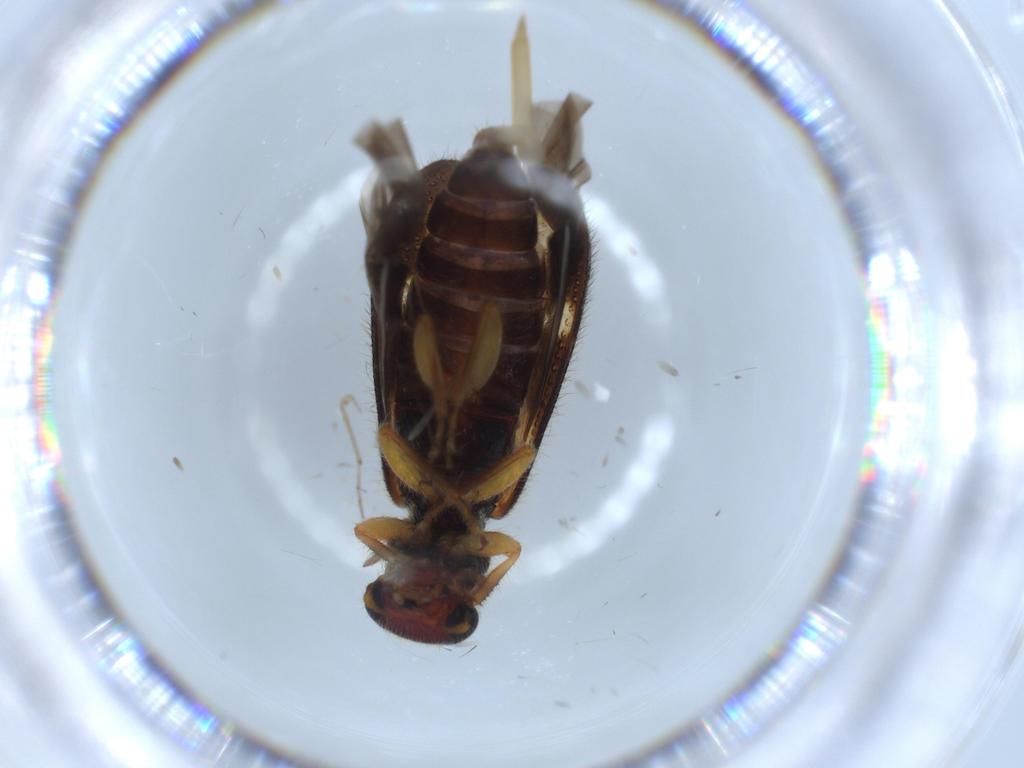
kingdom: Animalia
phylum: Arthropoda
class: Insecta
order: Coleoptera
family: Cleridae
